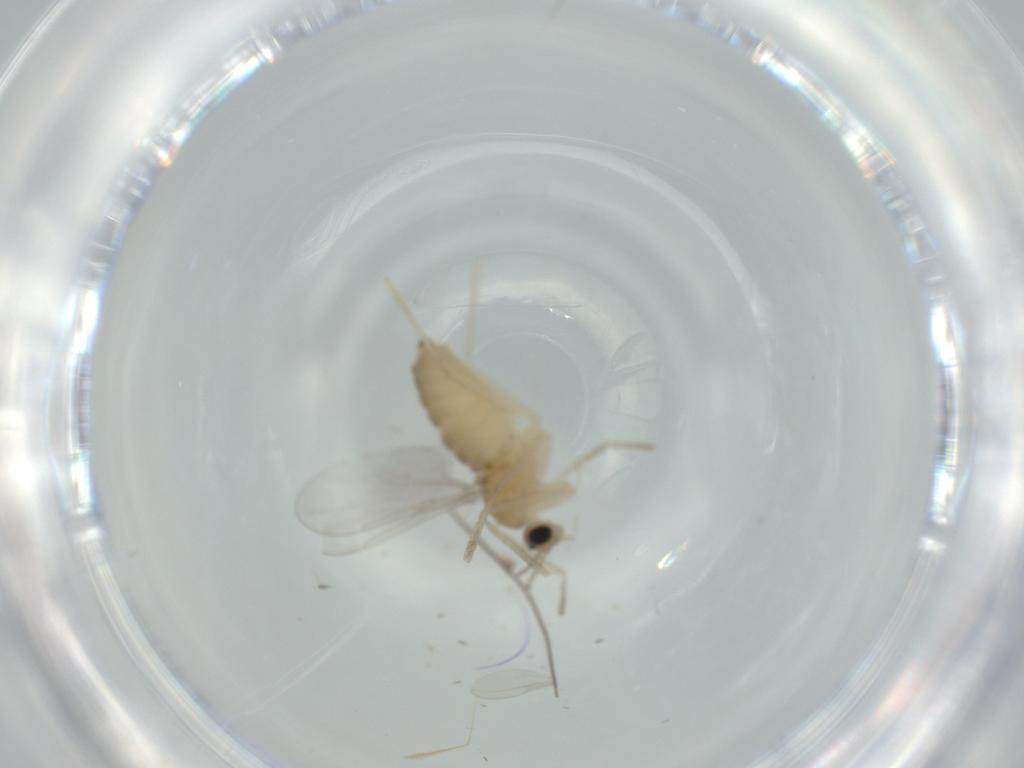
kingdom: Animalia
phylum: Arthropoda
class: Insecta
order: Diptera
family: Cecidomyiidae
